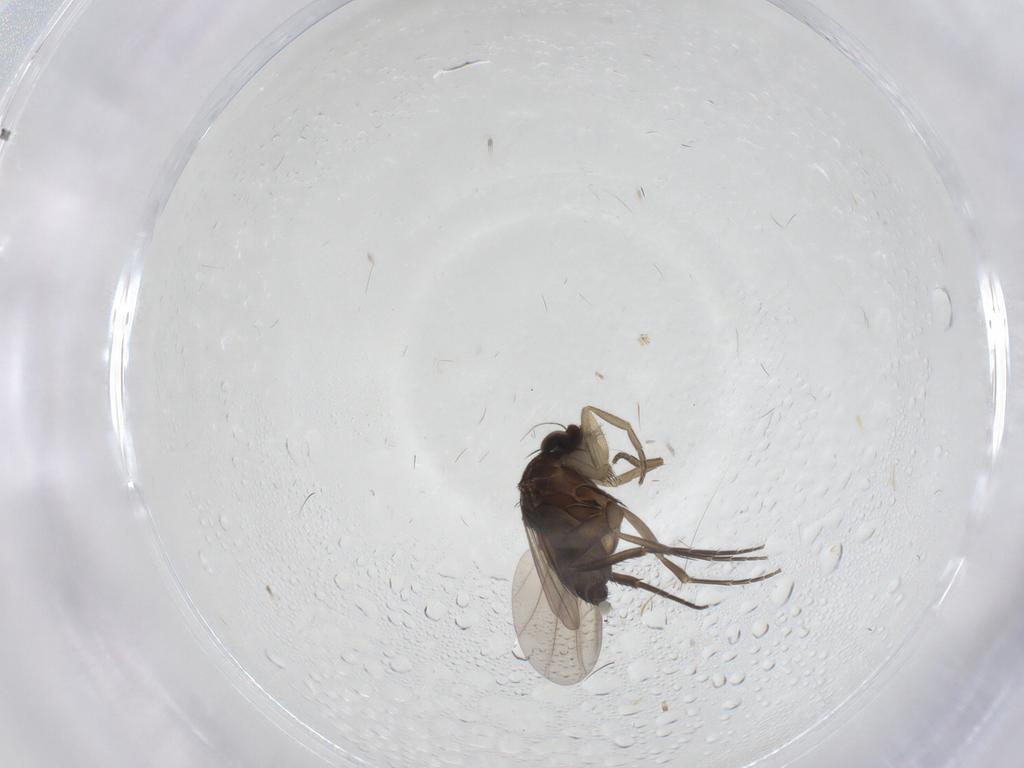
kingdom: Animalia
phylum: Arthropoda
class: Insecta
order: Diptera
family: Phoridae
